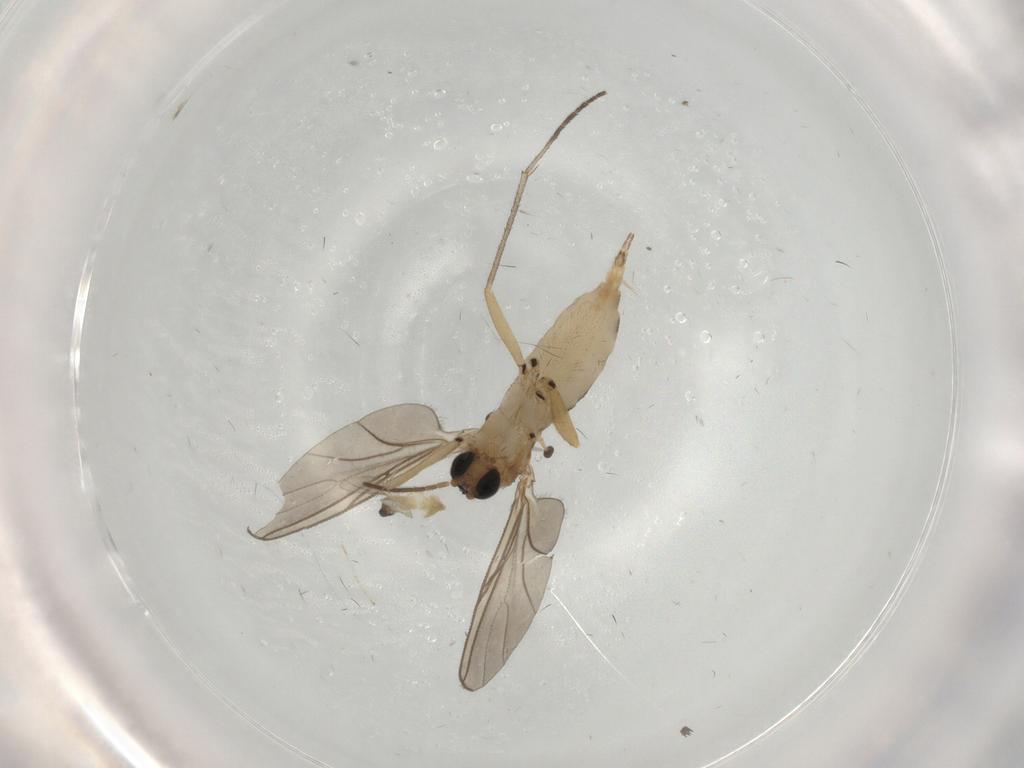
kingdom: Animalia
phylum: Arthropoda
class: Insecta
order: Diptera
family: Sciaridae
